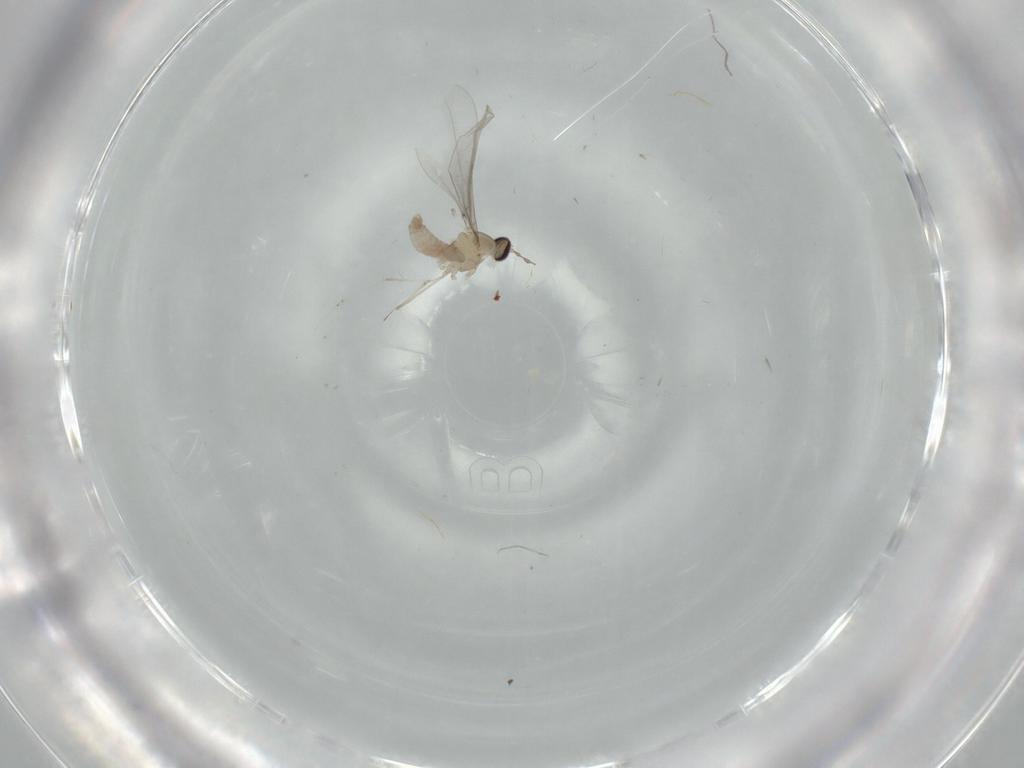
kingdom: Animalia
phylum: Arthropoda
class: Insecta
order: Diptera
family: Cecidomyiidae
